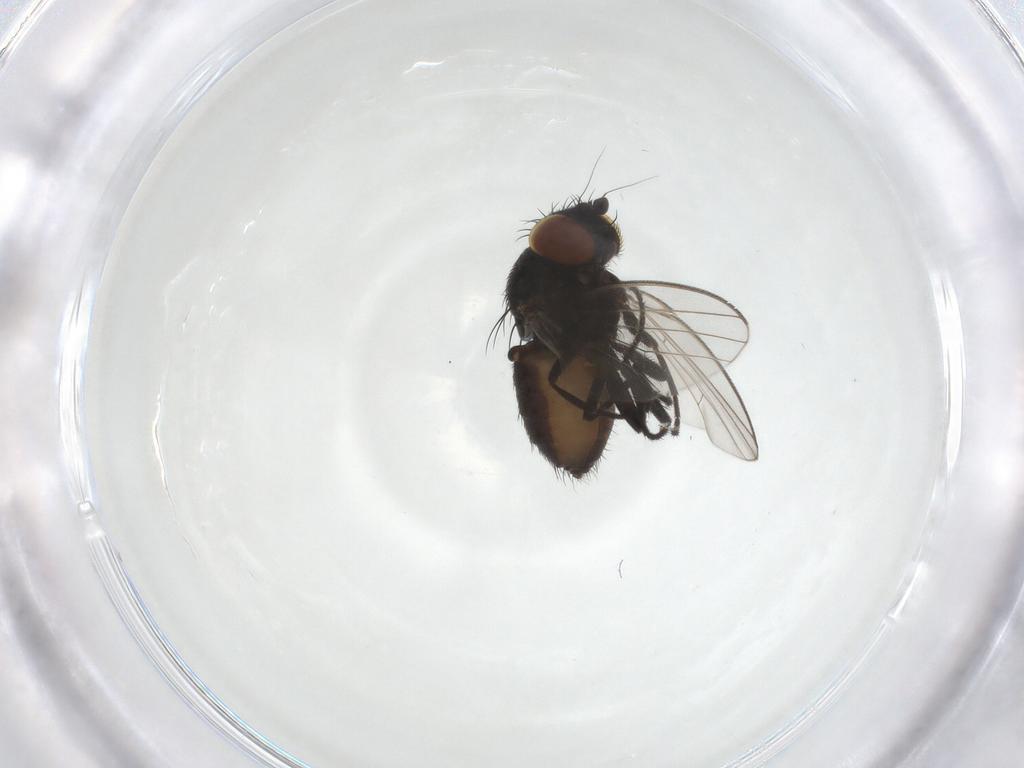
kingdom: Animalia
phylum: Arthropoda
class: Insecta
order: Diptera
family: Milichiidae
